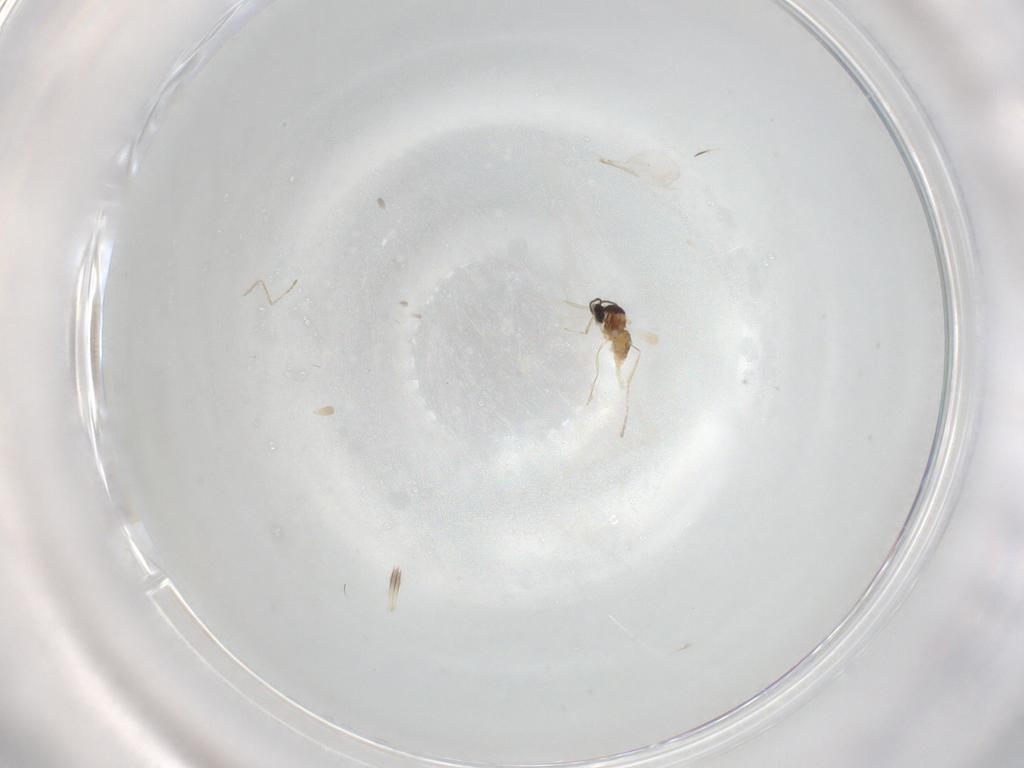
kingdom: Animalia
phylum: Arthropoda
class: Insecta
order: Diptera
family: Cecidomyiidae
